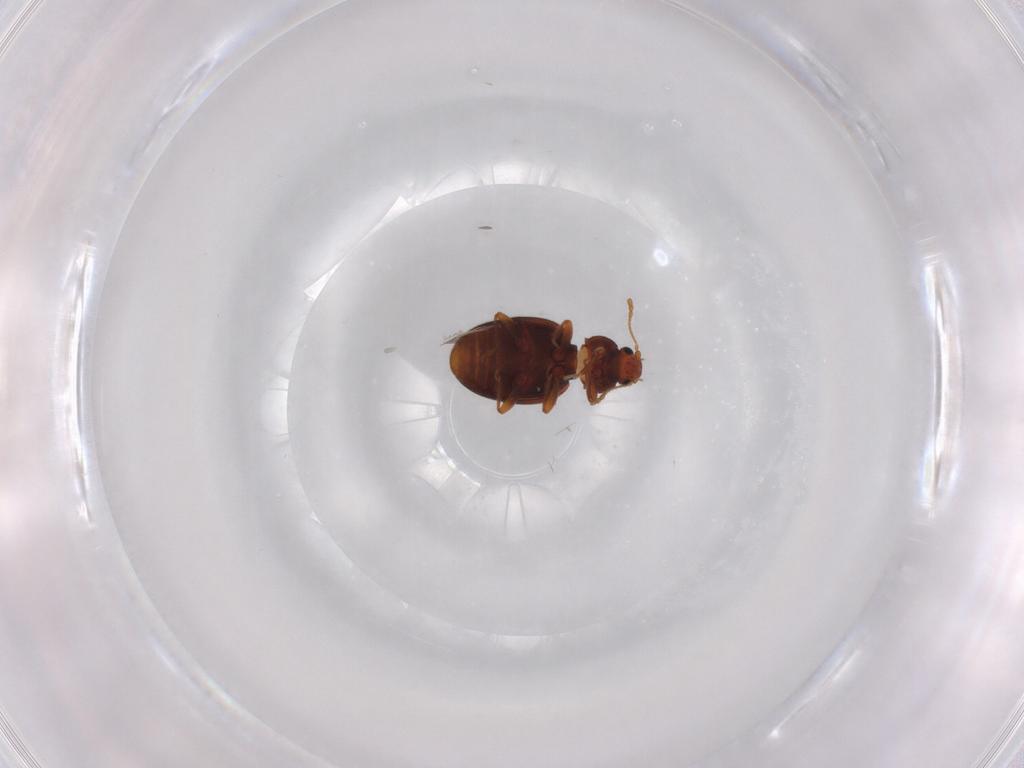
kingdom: Animalia
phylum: Arthropoda
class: Insecta
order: Coleoptera
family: Latridiidae
